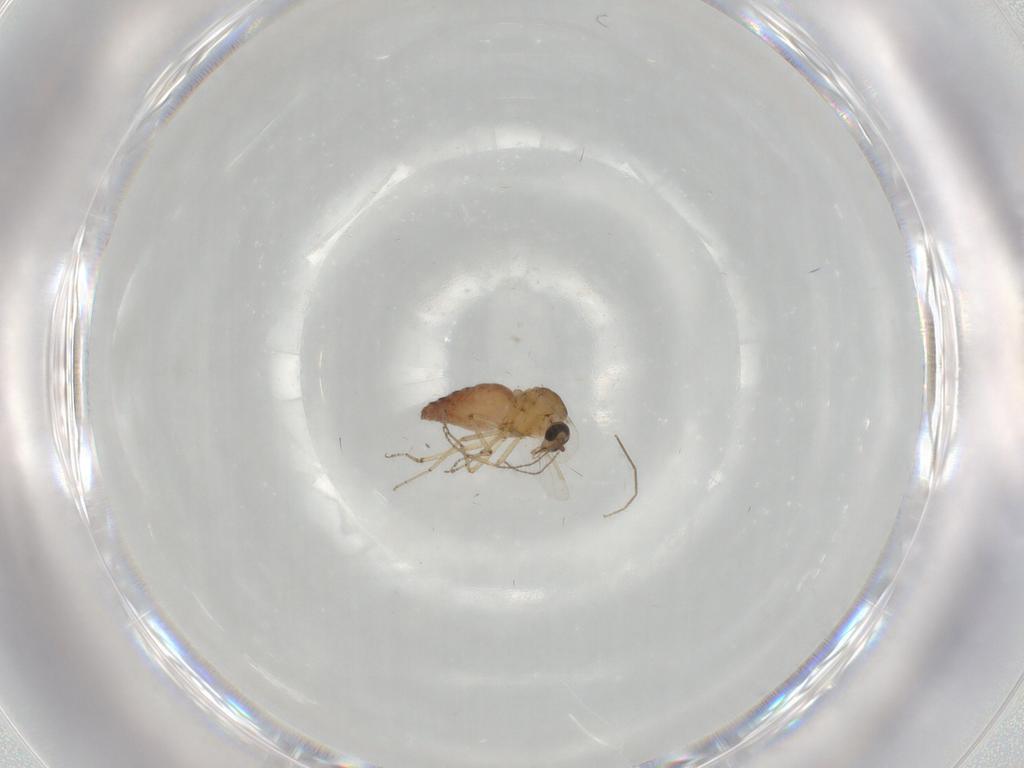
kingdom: Animalia
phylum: Arthropoda
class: Insecta
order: Diptera
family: Ceratopogonidae
